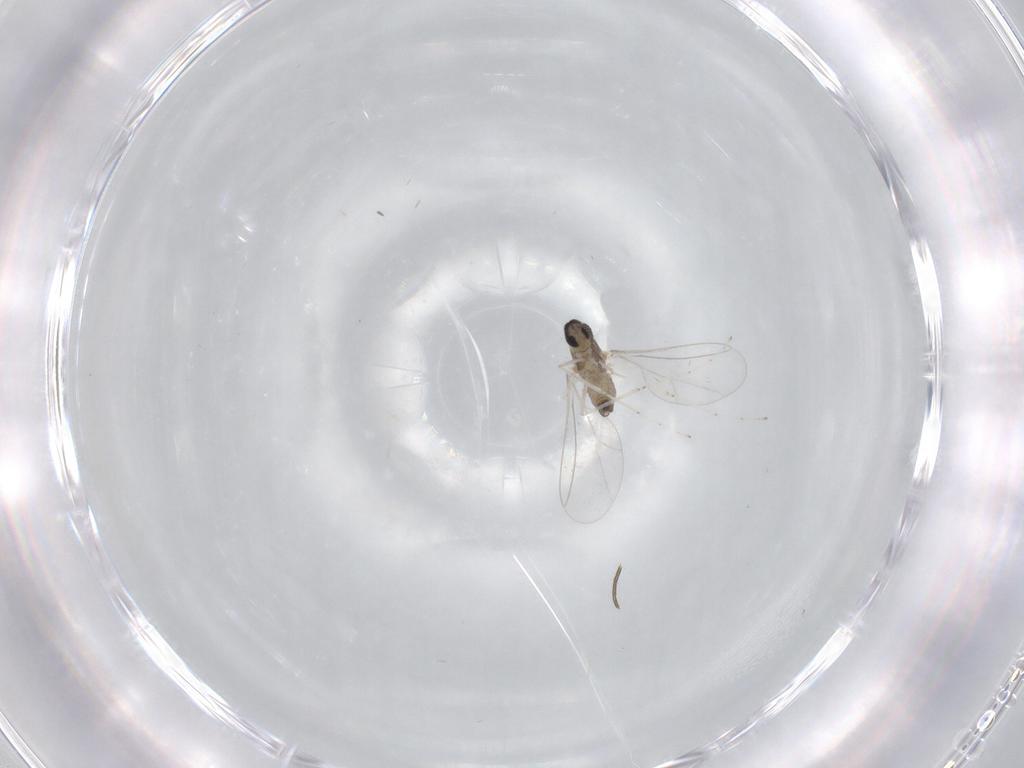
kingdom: Animalia
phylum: Arthropoda
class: Insecta
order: Diptera
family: Cecidomyiidae
